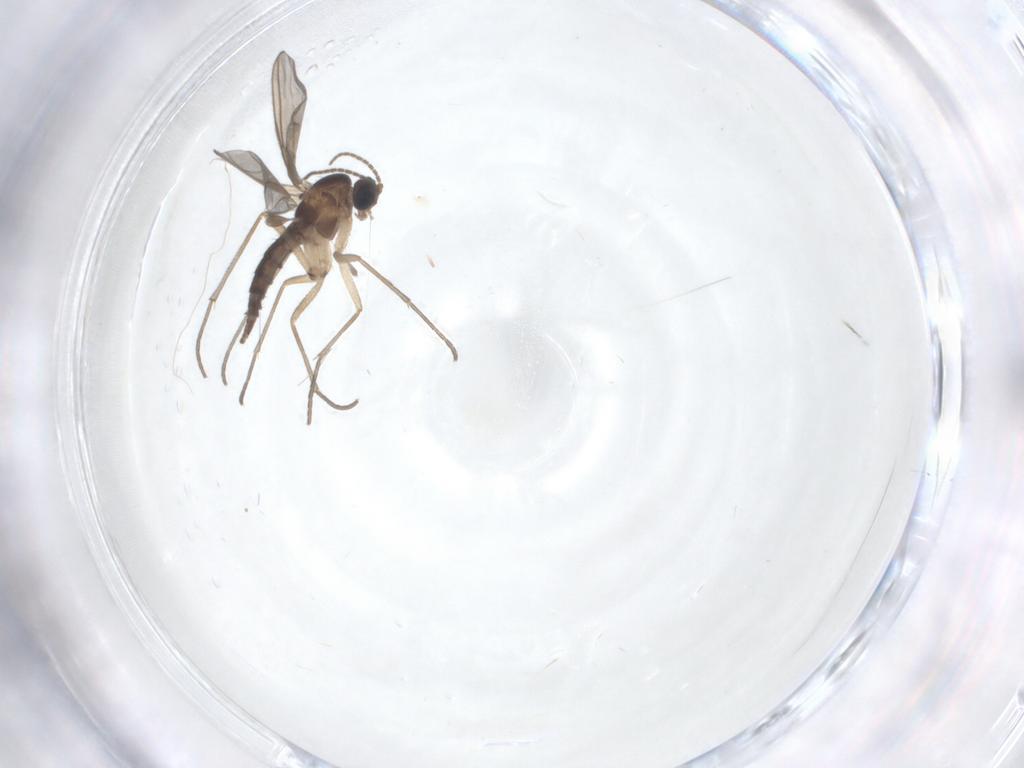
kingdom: Animalia
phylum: Arthropoda
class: Insecta
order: Diptera
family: Sciaridae
